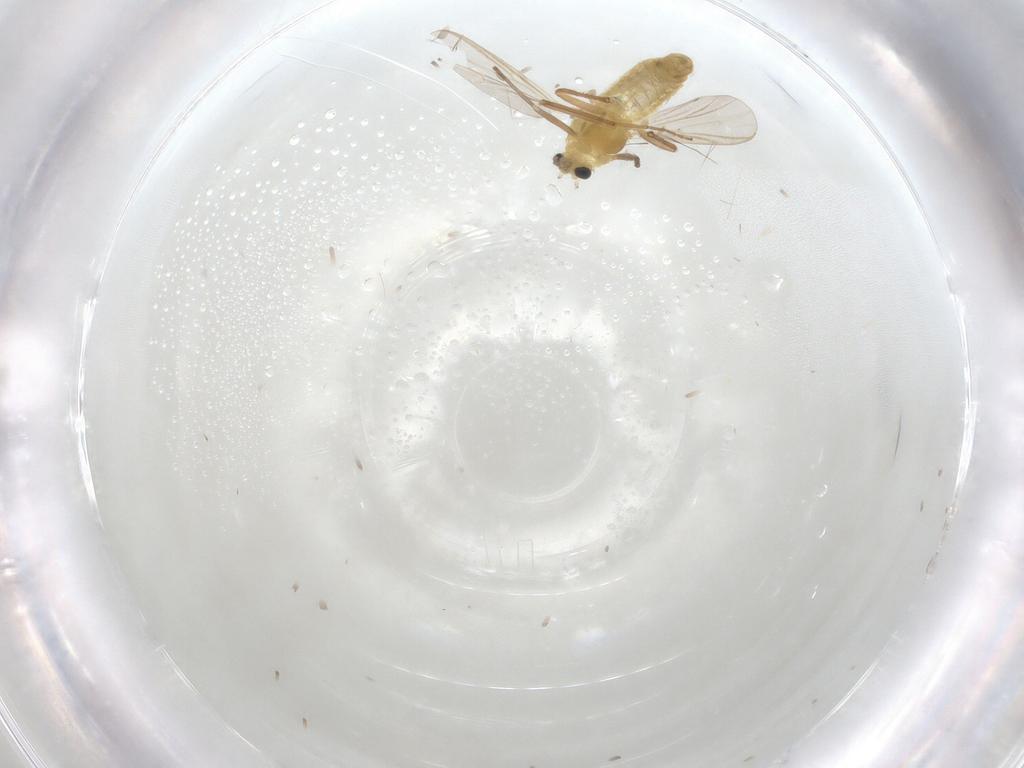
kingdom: Animalia
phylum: Arthropoda
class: Insecta
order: Diptera
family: Chironomidae
